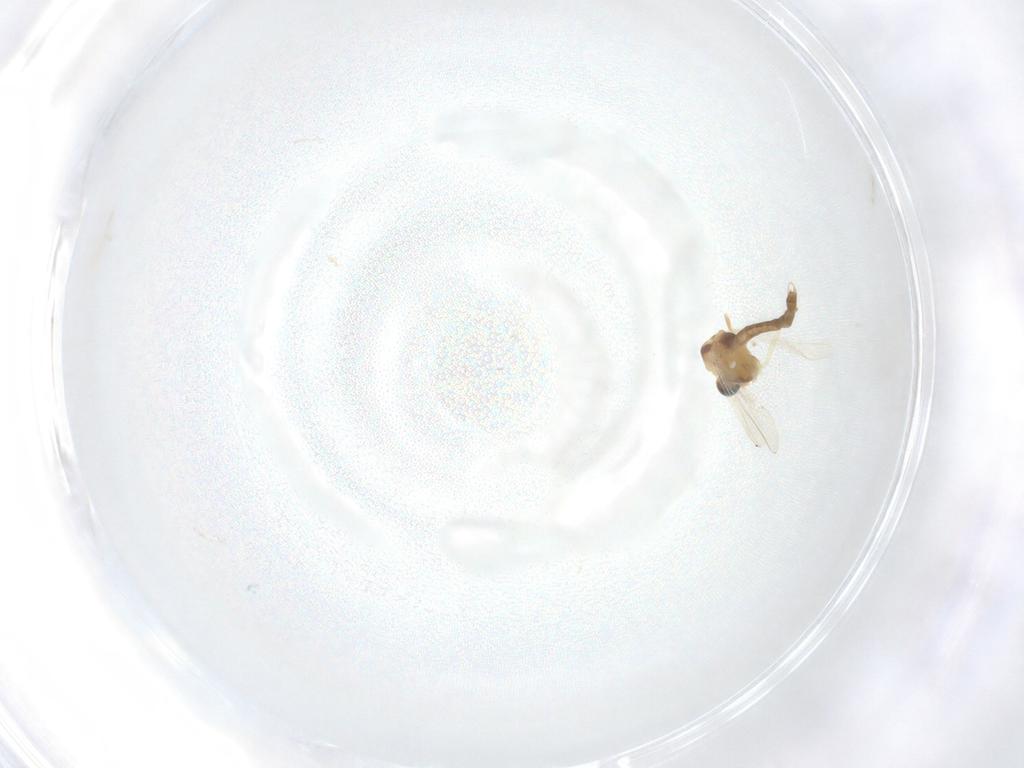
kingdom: Animalia
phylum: Arthropoda
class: Insecta
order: Diptera
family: Chironomidae
